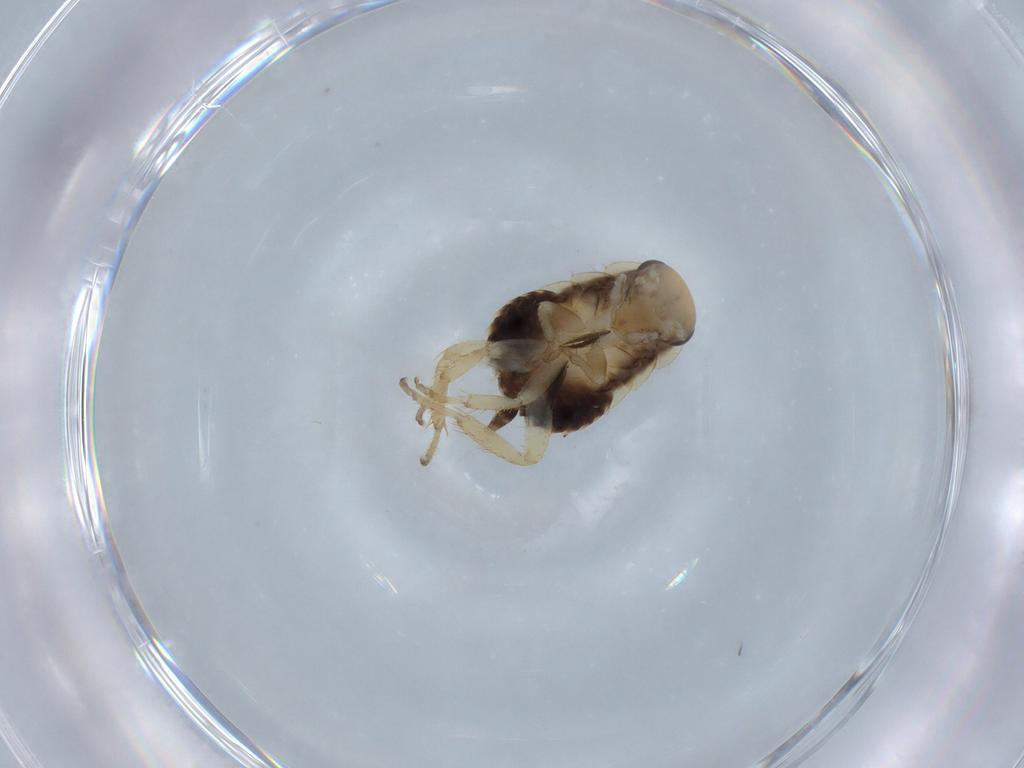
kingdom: Animalia
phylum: Arthropoda
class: Insecta
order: Blattodea
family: Ectobiidae
